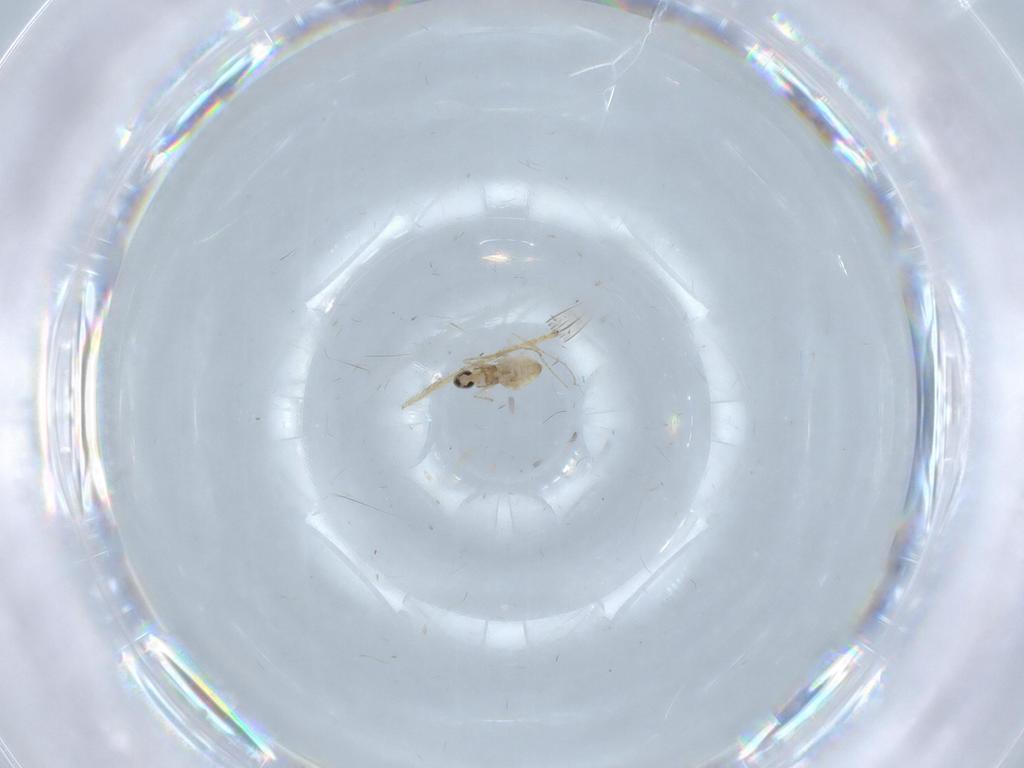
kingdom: Animalia
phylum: Arthropoda
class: Insecta
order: Diptera
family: Cecidomyiidae
